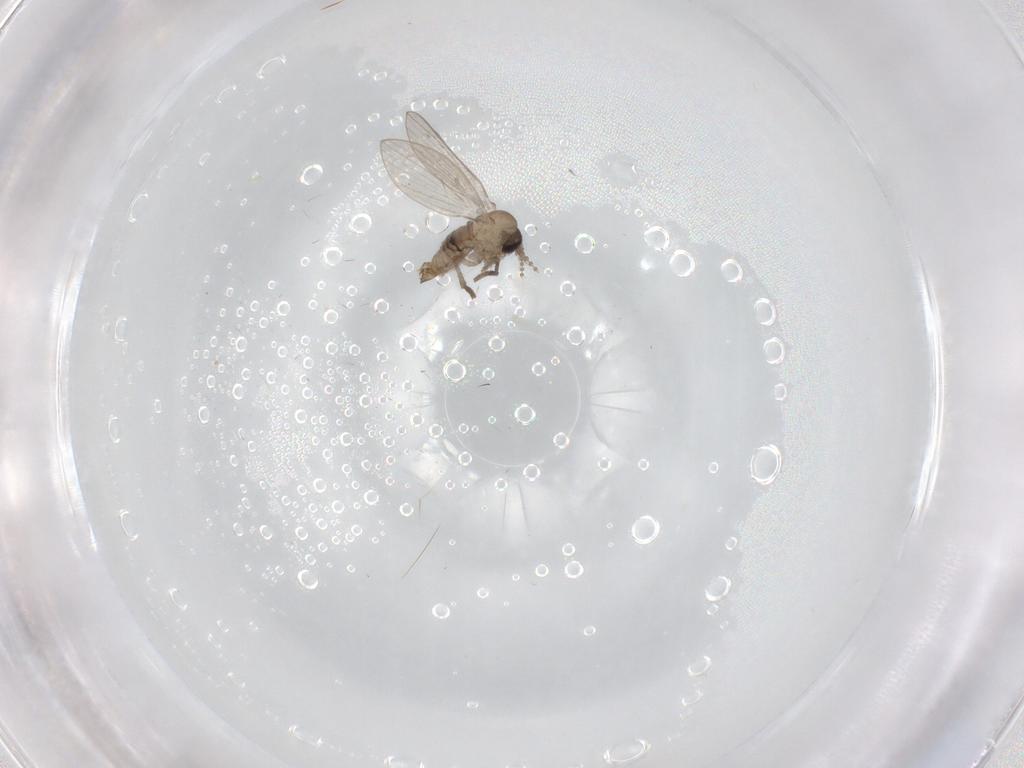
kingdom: Animalia
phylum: Arthropoda
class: Insecta
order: Diptera
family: Psychodidae
